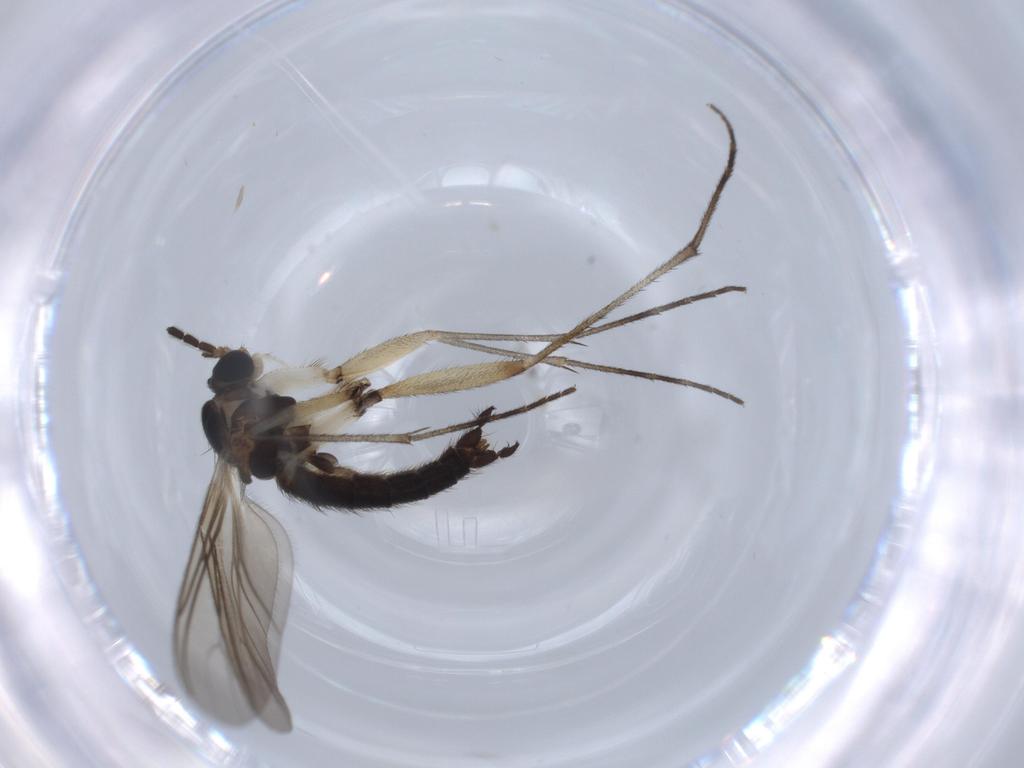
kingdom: Animalia
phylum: Arthropoda
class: Insecta
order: Diptera
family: Sciaridae
